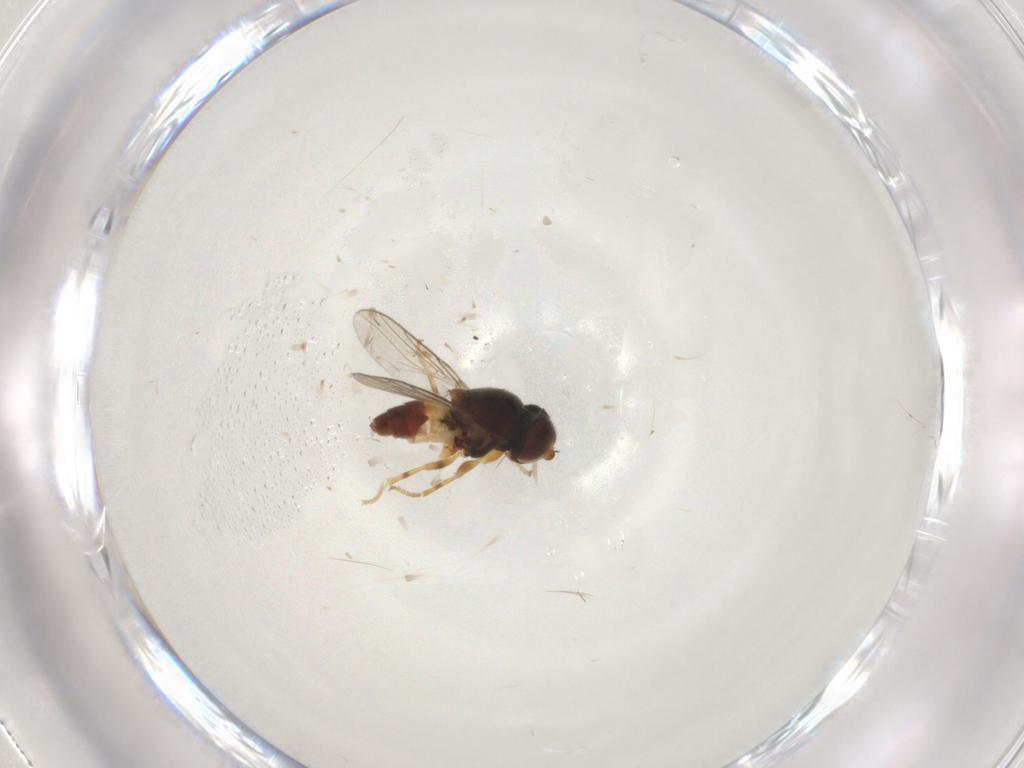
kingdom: Animalia
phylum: Arthropoda
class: Insecta
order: Diptera
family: Chloropidae
